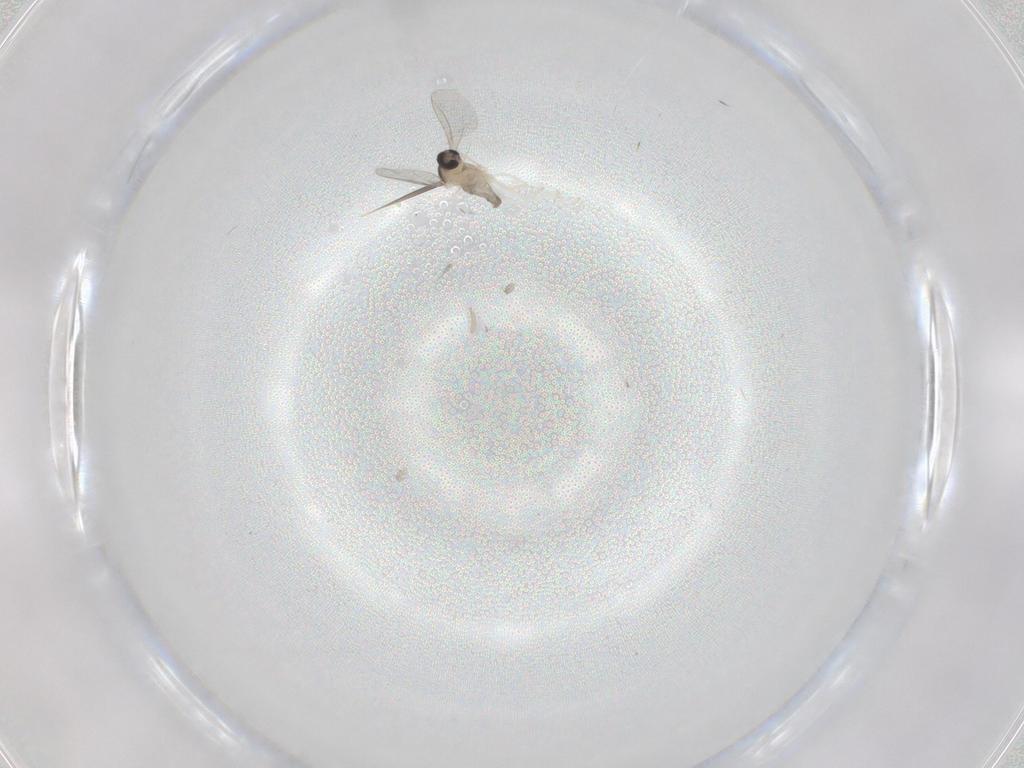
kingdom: Animalia
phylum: Arthropoda
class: Insecta
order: Diptera
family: Cecidomyiidae
